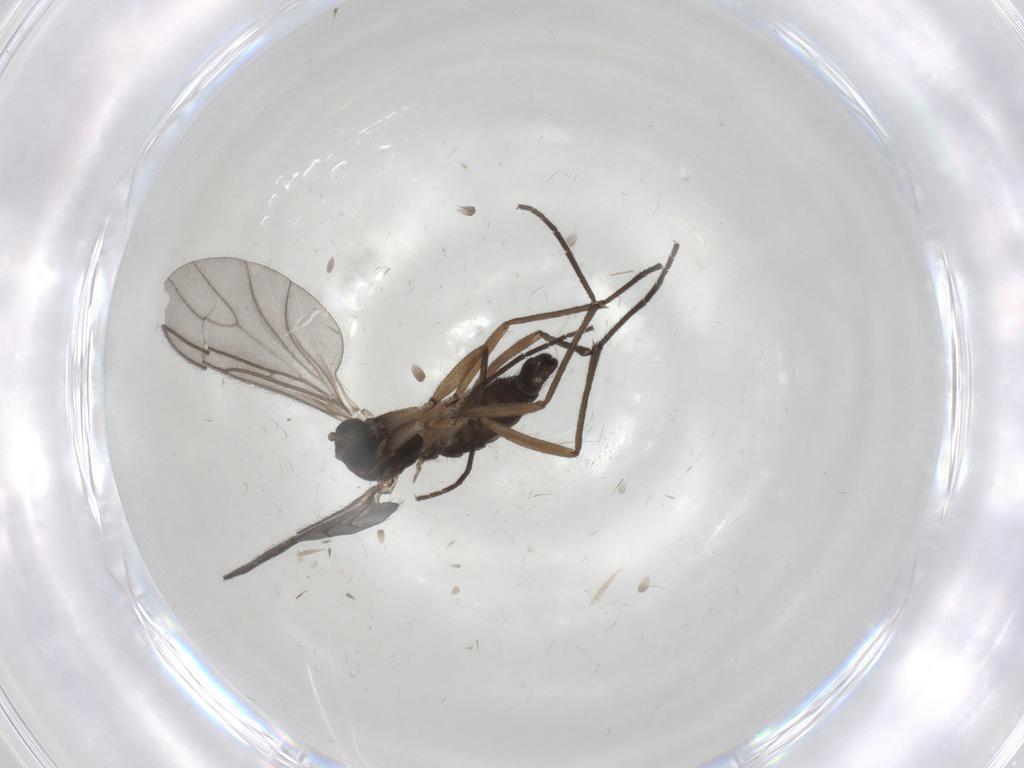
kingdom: Animalia
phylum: Arthropoda
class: Insecta
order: Diptera
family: Sciaridae
